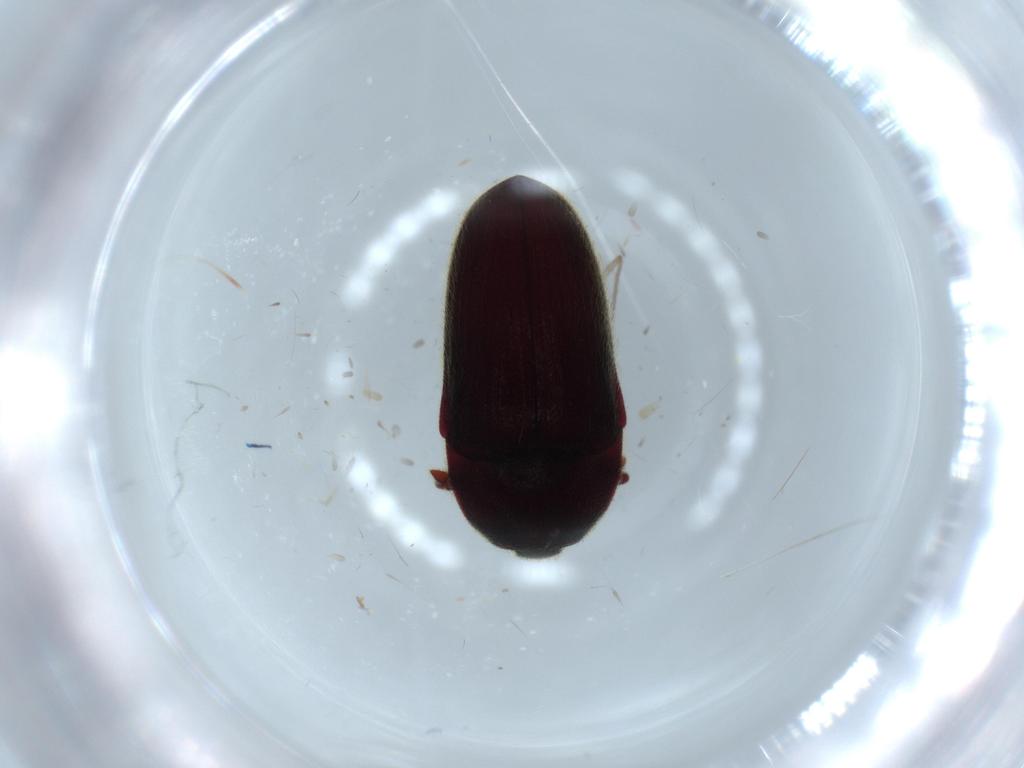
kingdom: Animalia
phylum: Arthropoda
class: Insecta
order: Coleoptera
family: Throscidae
